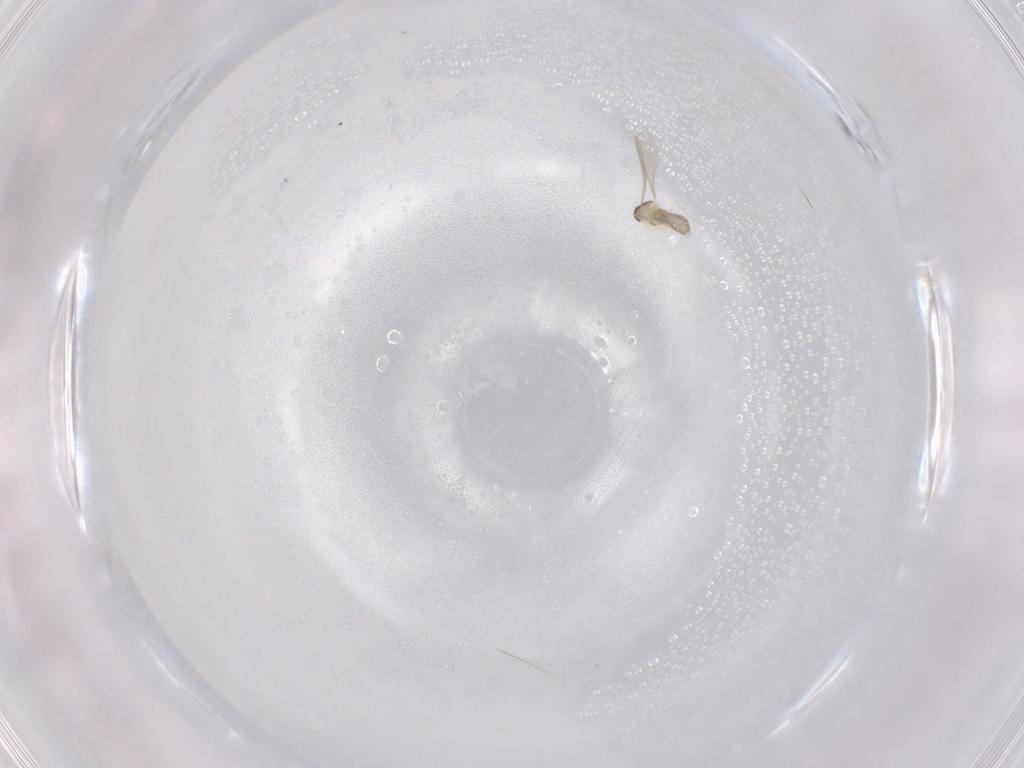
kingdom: Animalia
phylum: Arthropoda
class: Insecta
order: Diptera
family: Phoridae
